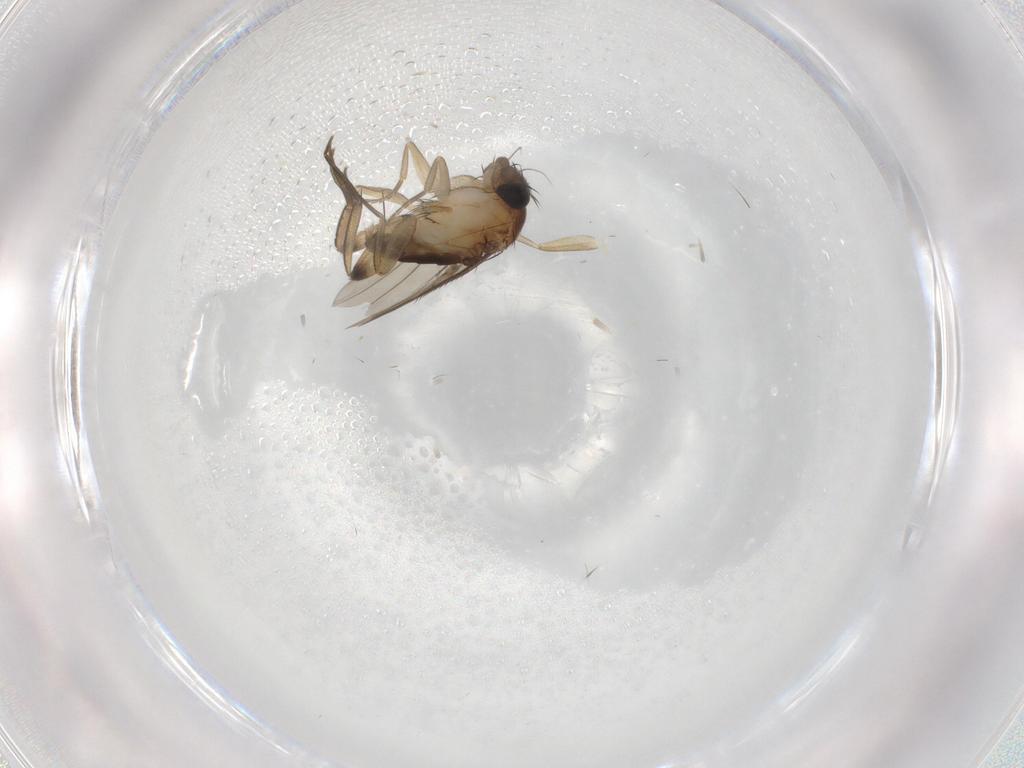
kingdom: Animalia
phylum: Arthropoda
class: Insecta
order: Diptera
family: Phoridae
